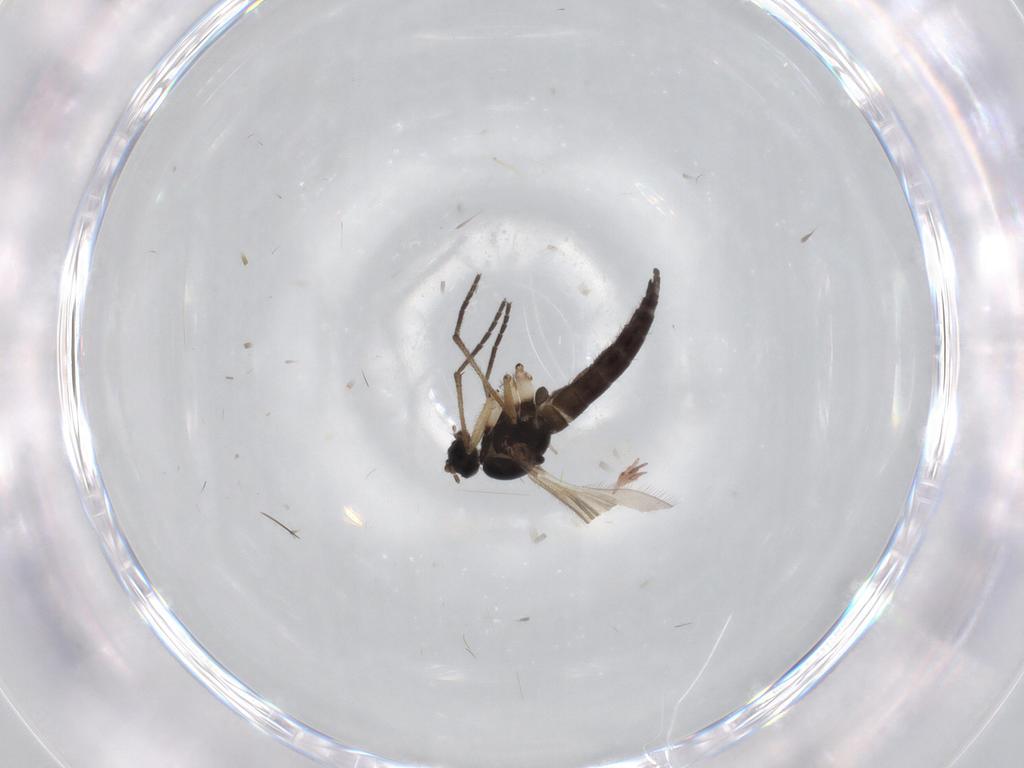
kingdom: Animalia
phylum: Arthropoda
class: Insecta
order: Diptera
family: Sciaridae
